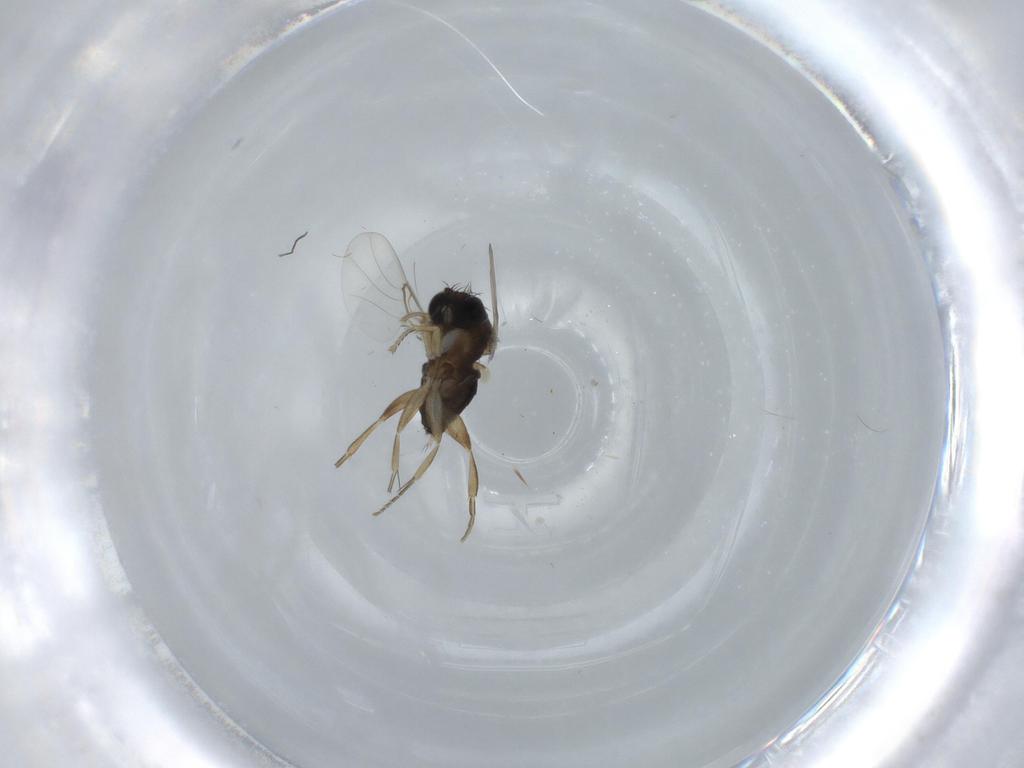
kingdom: Animalia
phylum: Arthropoda
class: Insecta
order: Diptera
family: Phoridae
